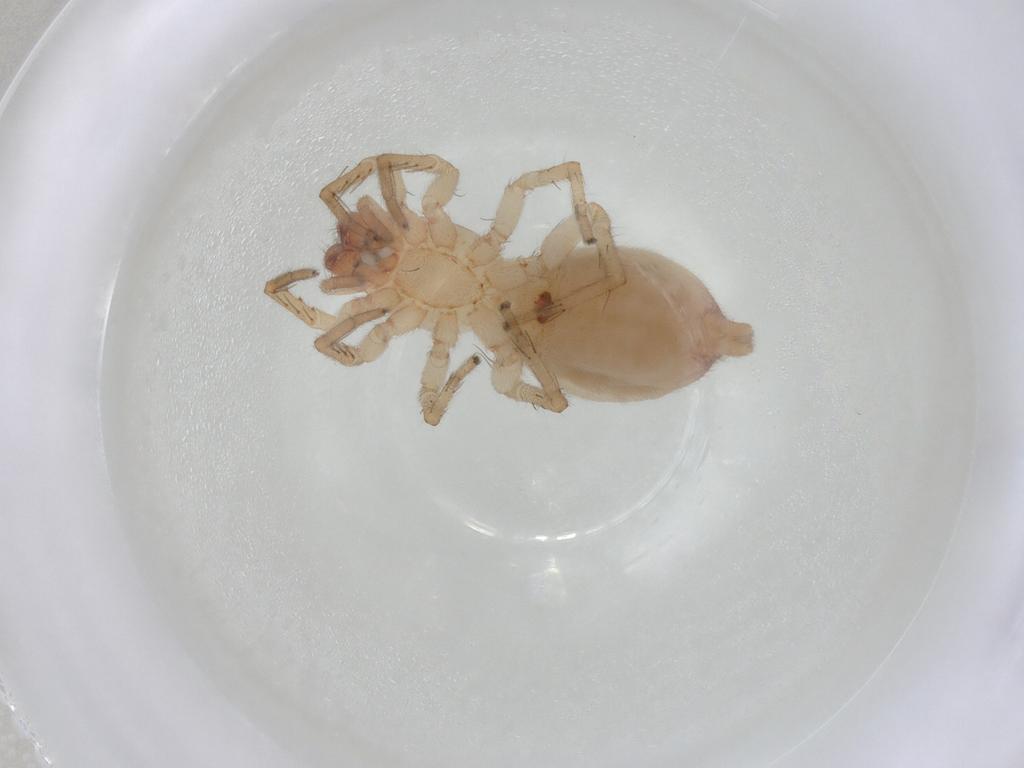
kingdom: Animalia
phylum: Arthropoda
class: Arachnida
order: Araneae
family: Clubionidae
